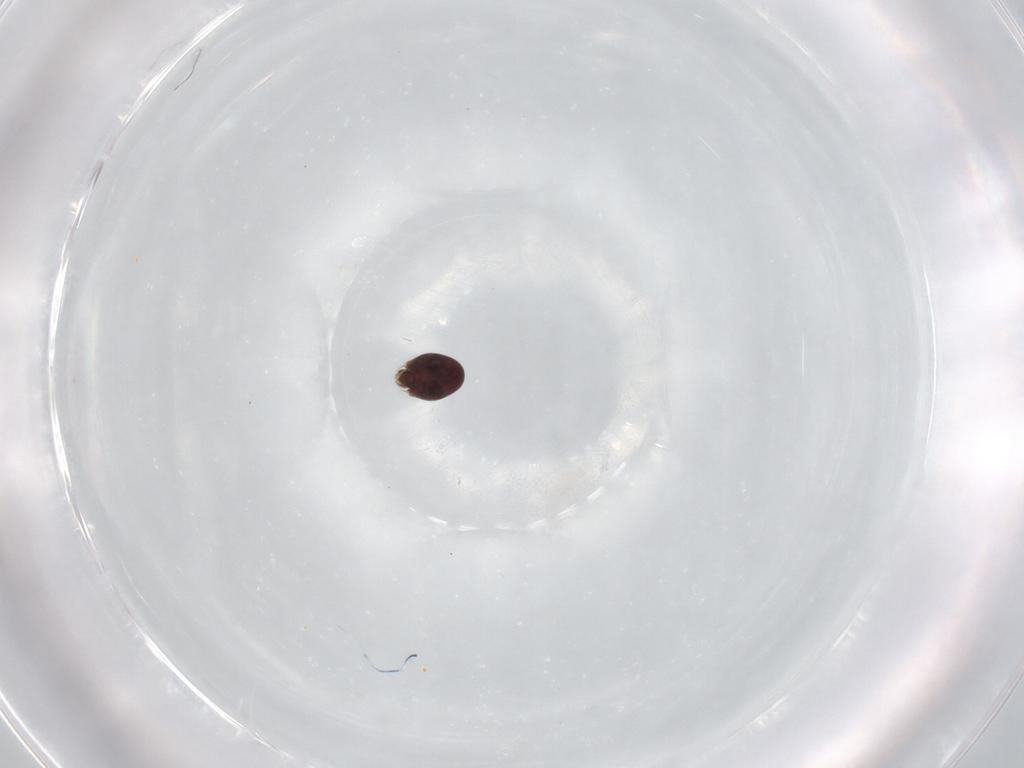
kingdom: Animalia
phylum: Arthropoda
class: Arachnida
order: Sarcoptiformes
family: Achipteriidae
